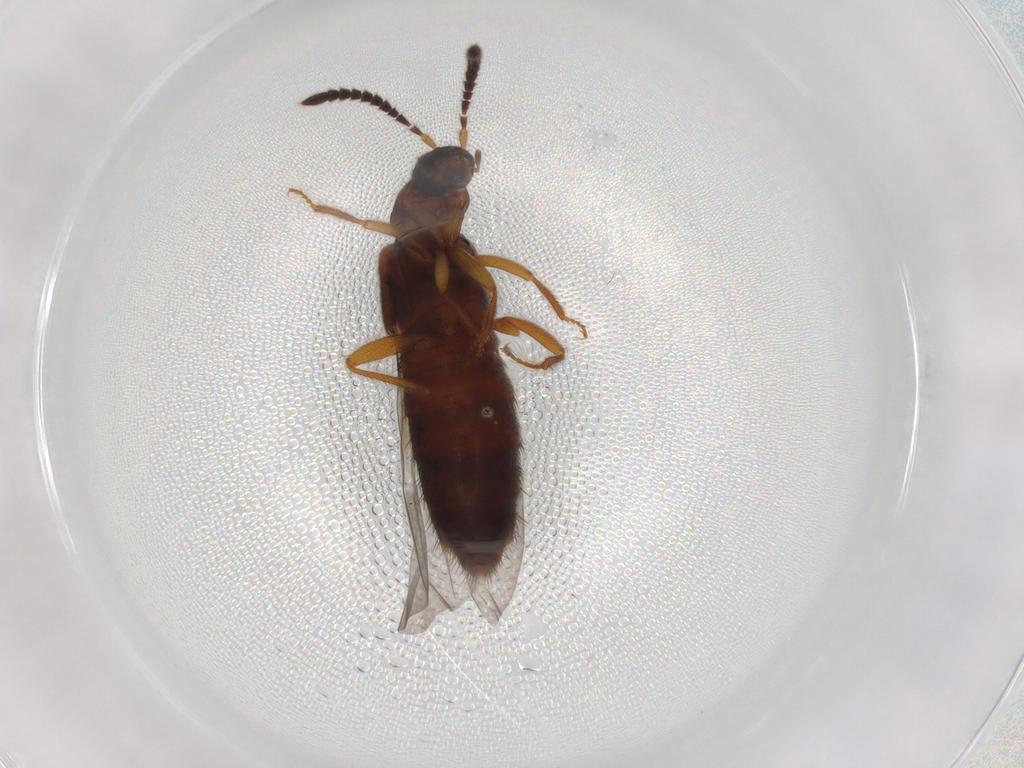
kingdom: Animalia
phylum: Arthropoda
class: Insecta
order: Coleoptera
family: Staphylinidae
